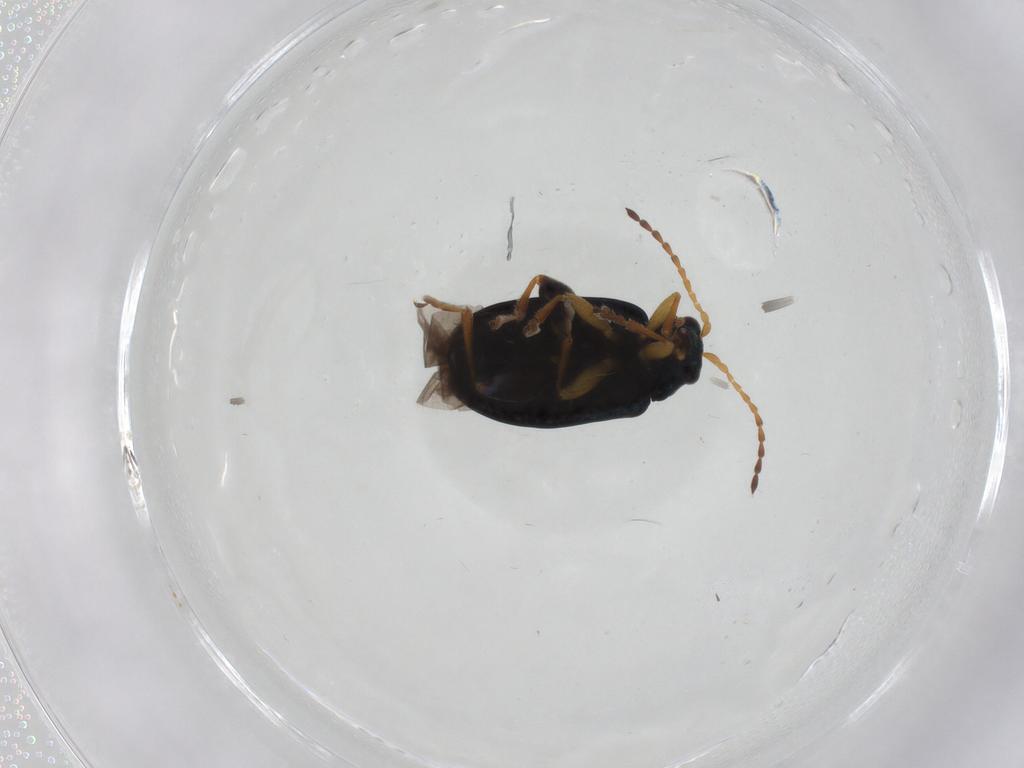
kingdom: Animalia
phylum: Arthropoda
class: Insecta
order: Coleoptera
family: Chrysomelidae
